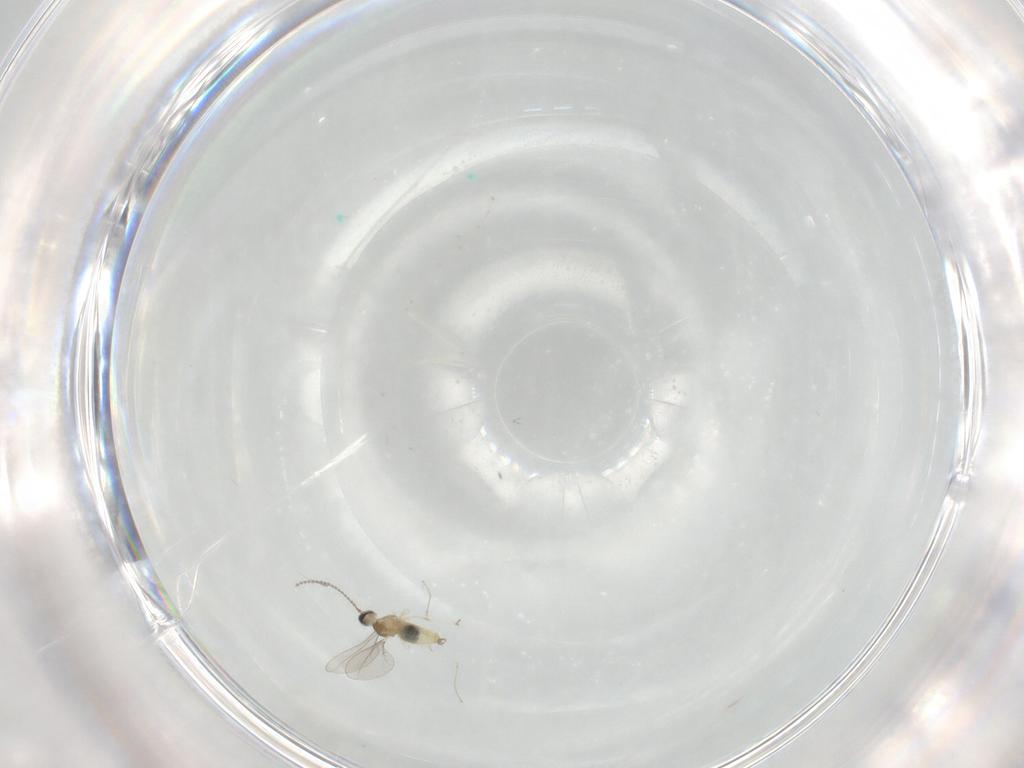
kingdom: Animalia
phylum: Arthropoda
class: Insecta
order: Diptera
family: Cecidomyiidae
